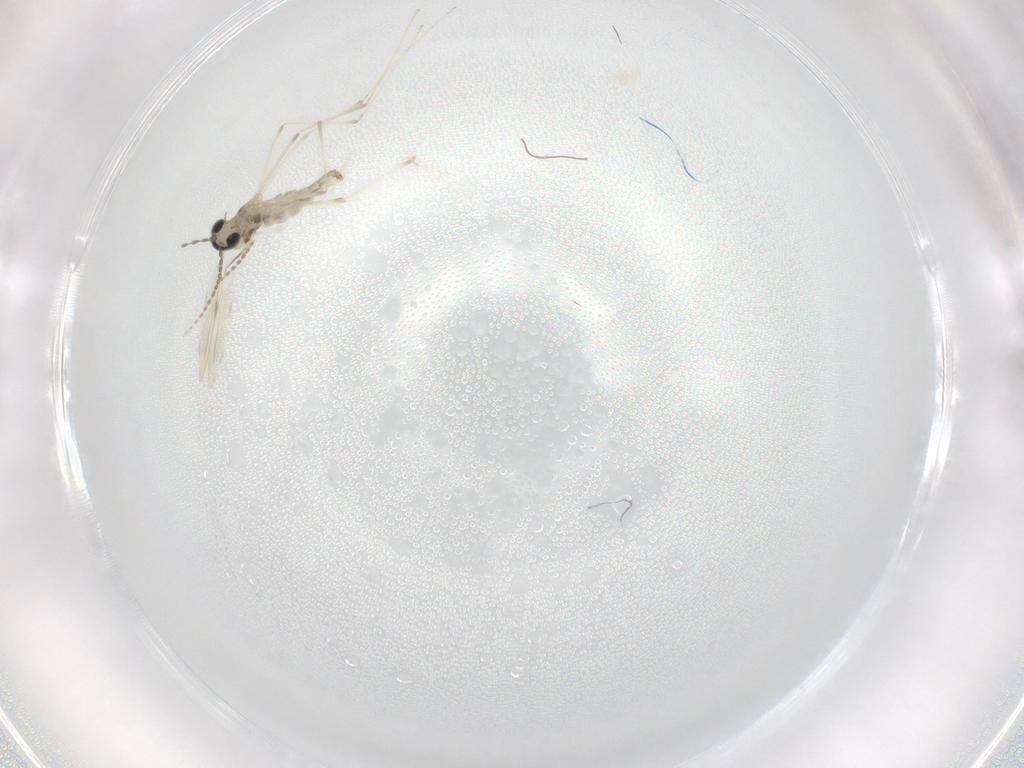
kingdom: Animalia
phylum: Arthropoda
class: Insecta
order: Diptera
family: Cecidomyiidae
